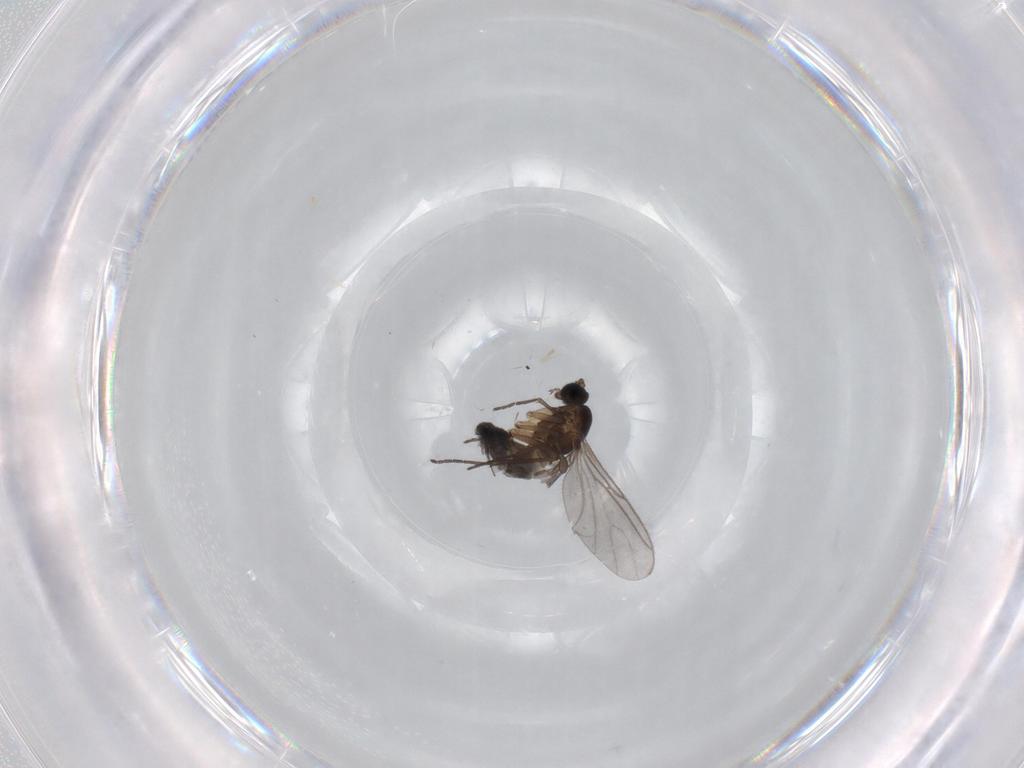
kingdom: Animalia
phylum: Arthropoda
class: Insecta
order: Diptera
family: Sciaridae
